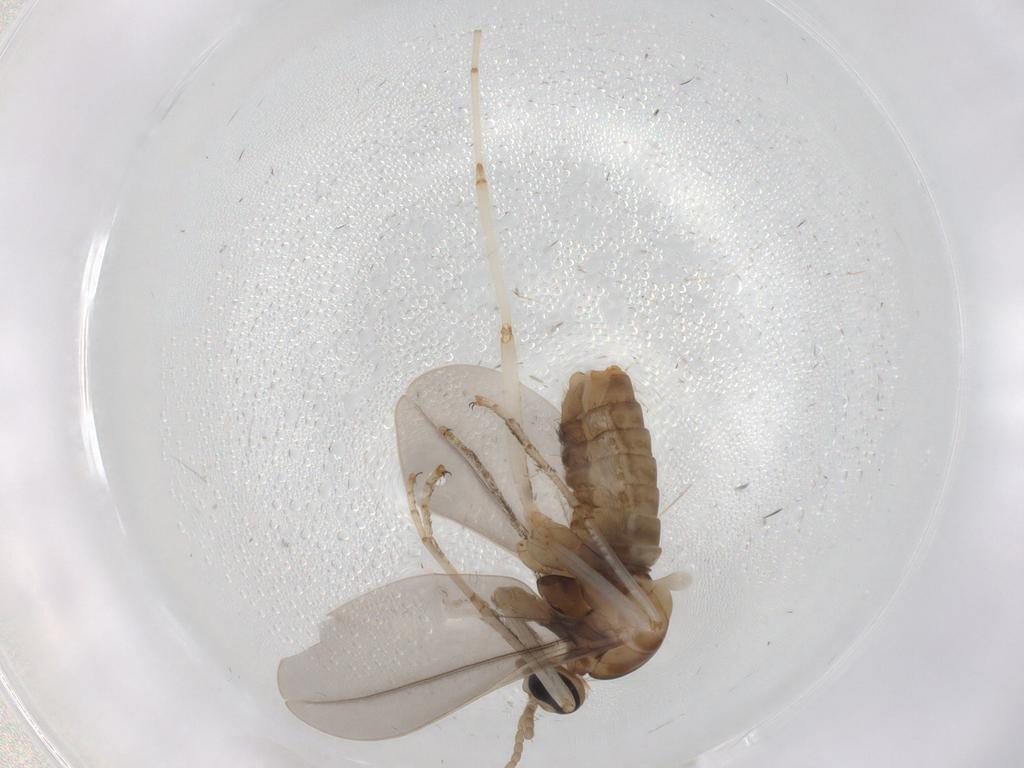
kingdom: Animalia
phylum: Arthropoda
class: Insecta
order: Diptera
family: Cecidomyiidae
